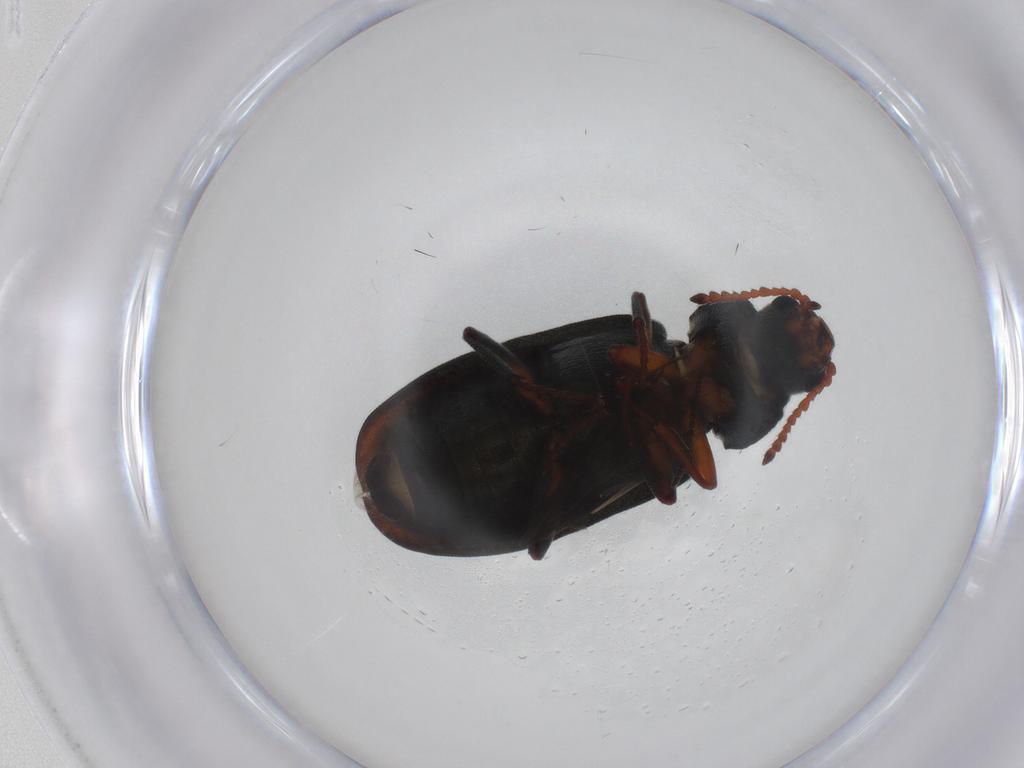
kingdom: Animalia
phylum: Arthropoda
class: Insecta
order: Coleoptera
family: Melyridae
